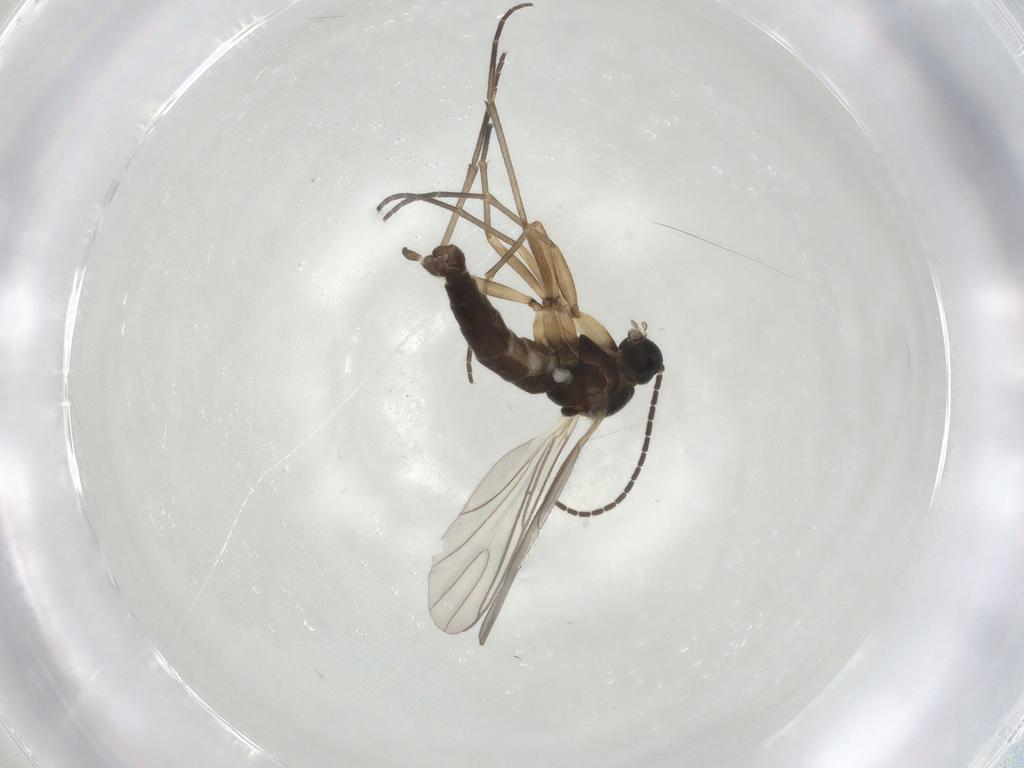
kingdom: Animalia
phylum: Arthropoda
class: Insecta
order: Diptera
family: Sciaridae
